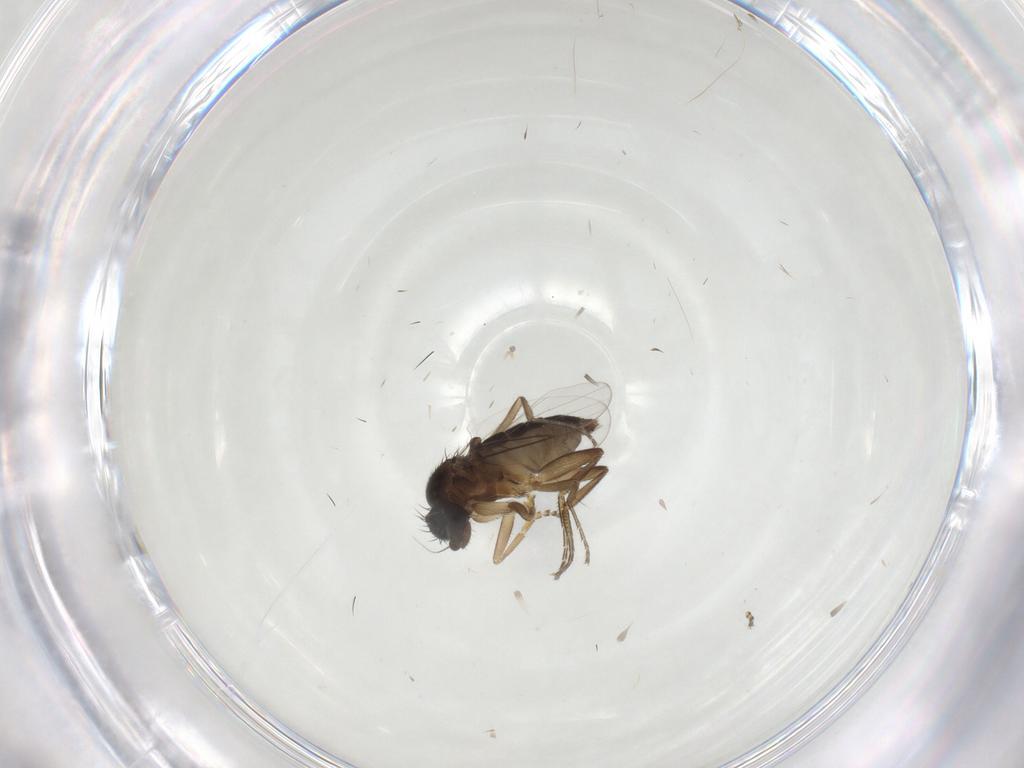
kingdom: Animalia
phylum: Arthropoda
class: Insecta
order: Diptera
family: Phoridae
